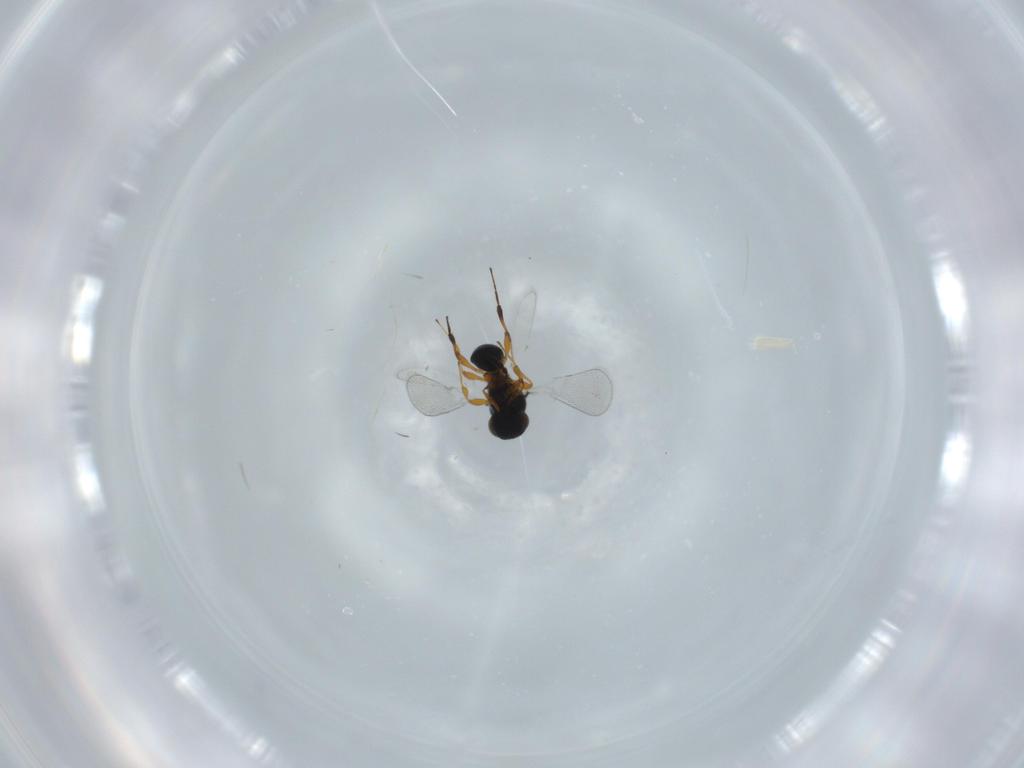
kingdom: Animalia
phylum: Arthropoda
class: Insecta
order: Hymenoptera
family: Platygastridae
